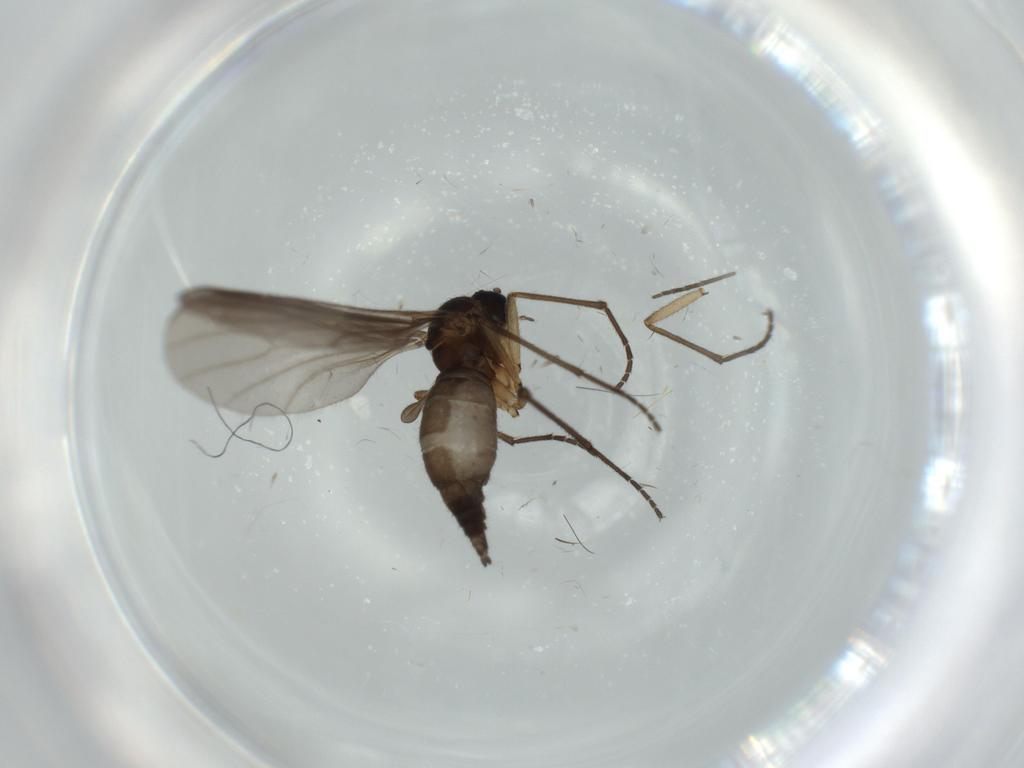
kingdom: Animalia
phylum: Arthropoda
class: Insecta
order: Diptera
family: Sciaridae
